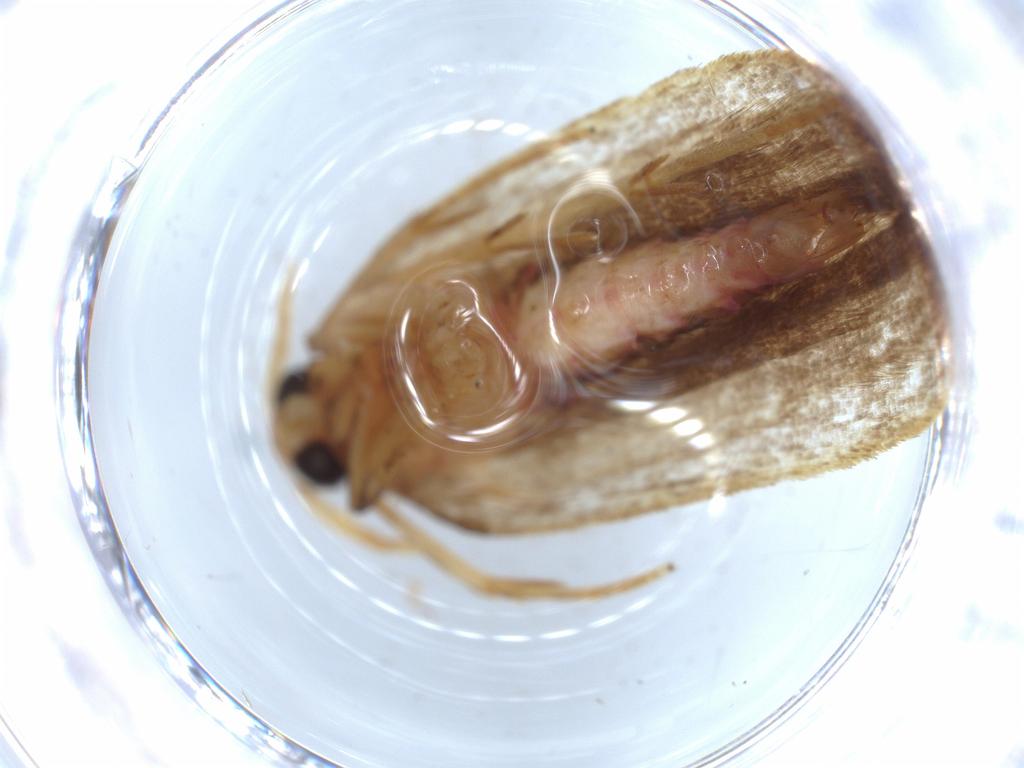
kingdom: Animalia
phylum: Arthropoda
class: Insecta
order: Lepidoptera
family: Autostichidae
